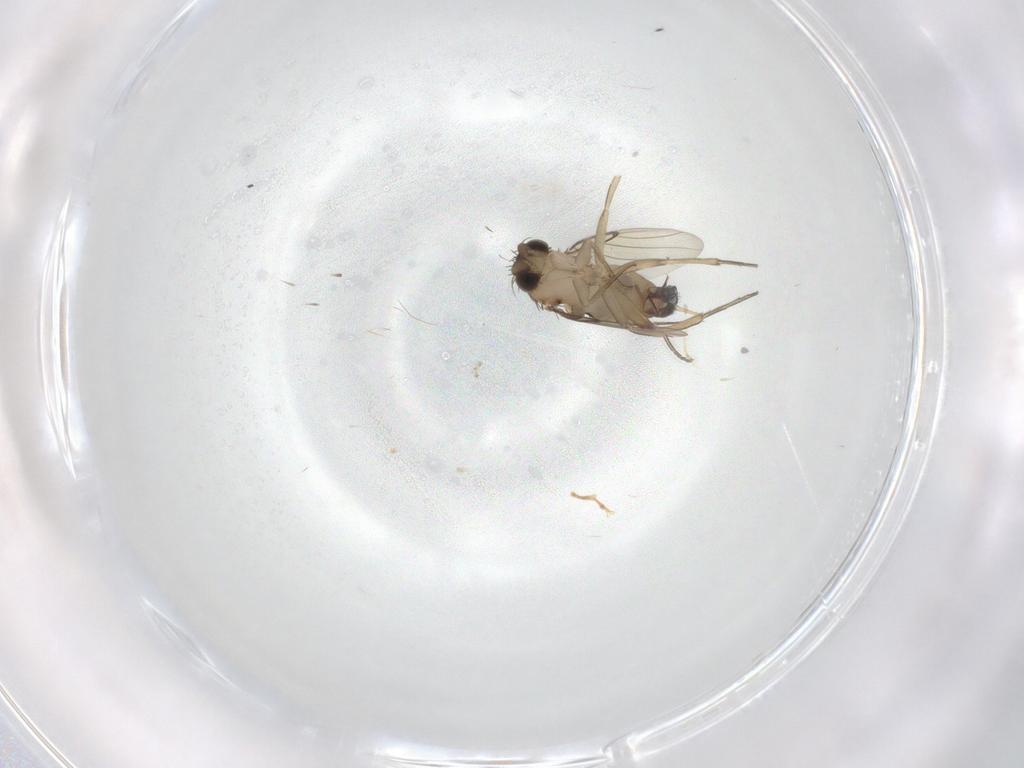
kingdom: Animalia
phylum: Arthropoda
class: Insecta
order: Diptera
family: Phoridae
